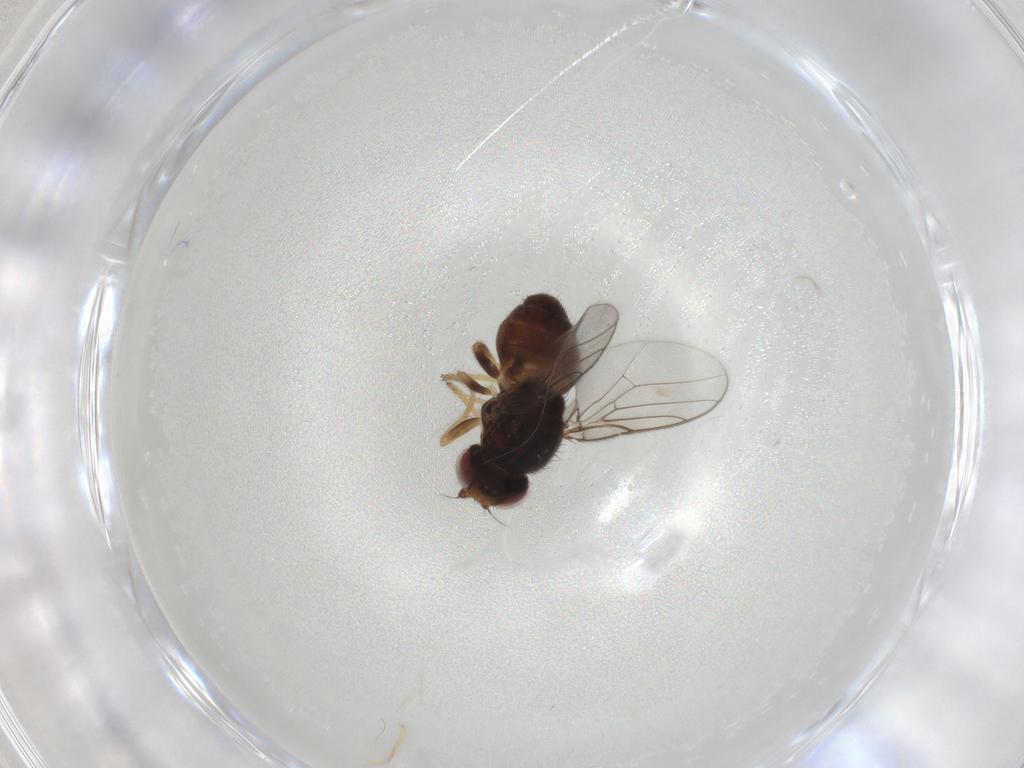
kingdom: Animalia
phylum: Arthropoda
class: Insecta
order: Diptera
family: Chloropidae
